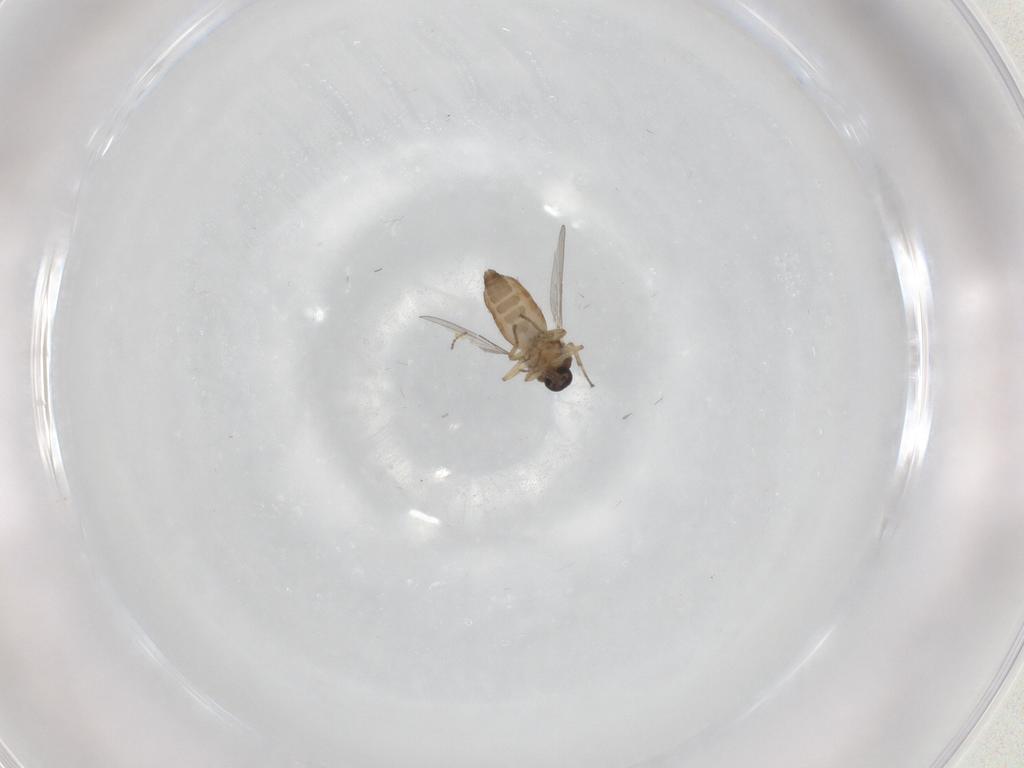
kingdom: Animalia
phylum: Arthropoda
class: Insecta
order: Diptera
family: Ceratopogonidae
